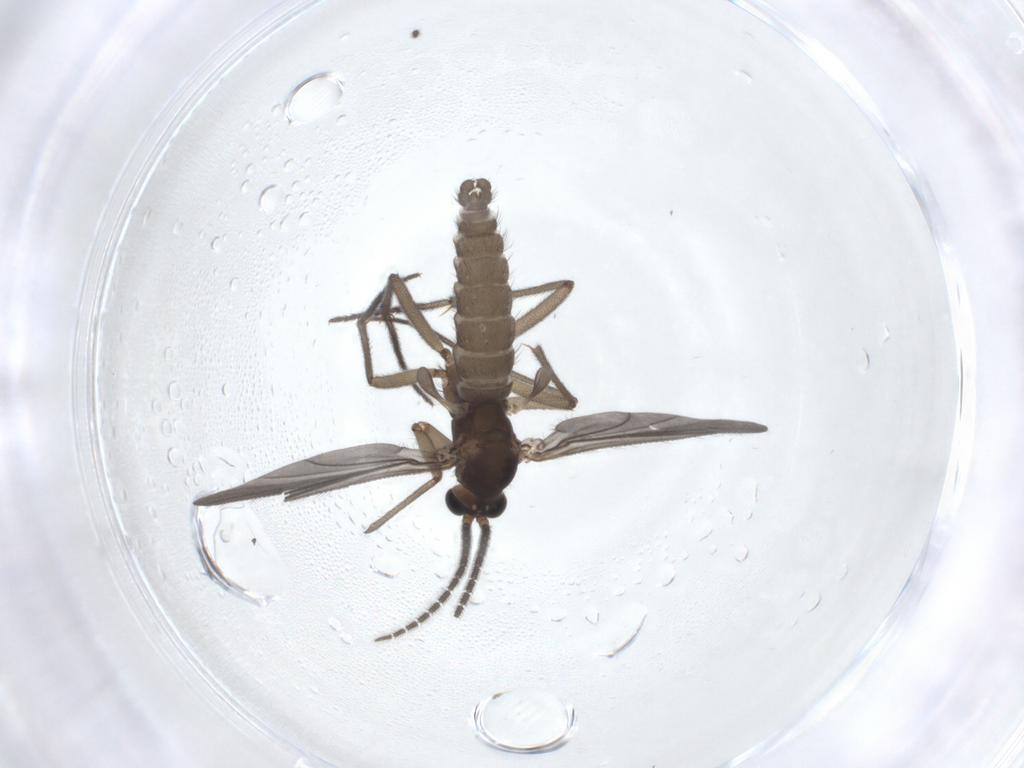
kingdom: Animalia
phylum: Arthropoda
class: Insecta
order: Diptera
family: Sciaridae
